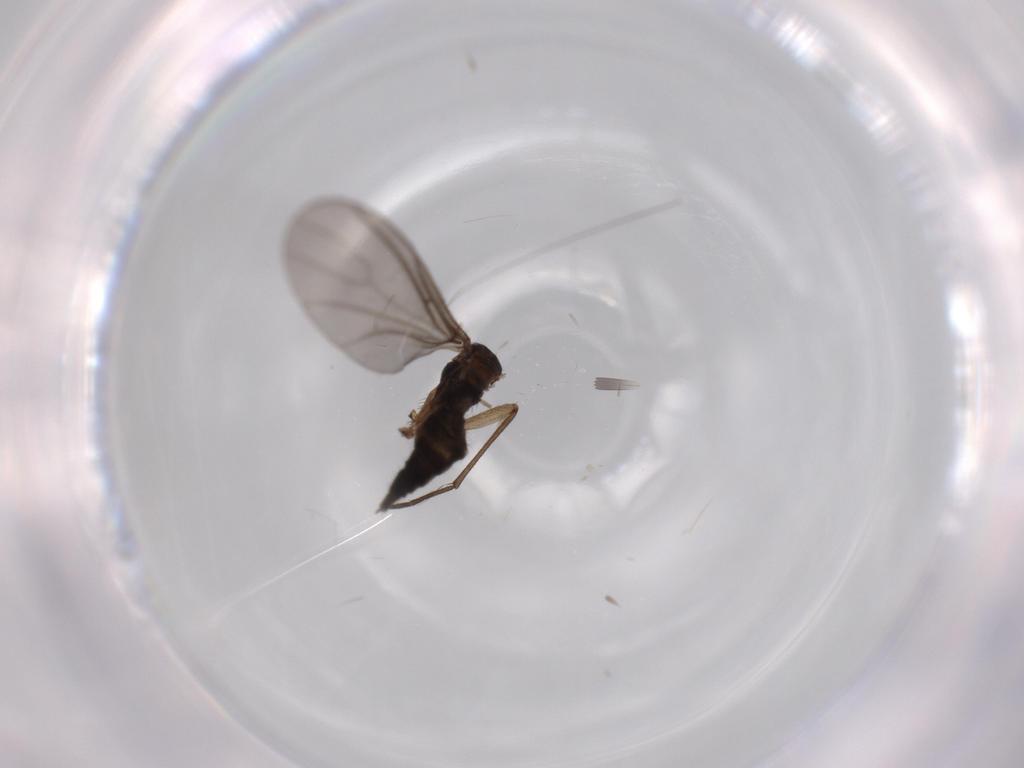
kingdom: Animalia
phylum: Arthropoda
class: Insecta
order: Diptera
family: Sciaridae
